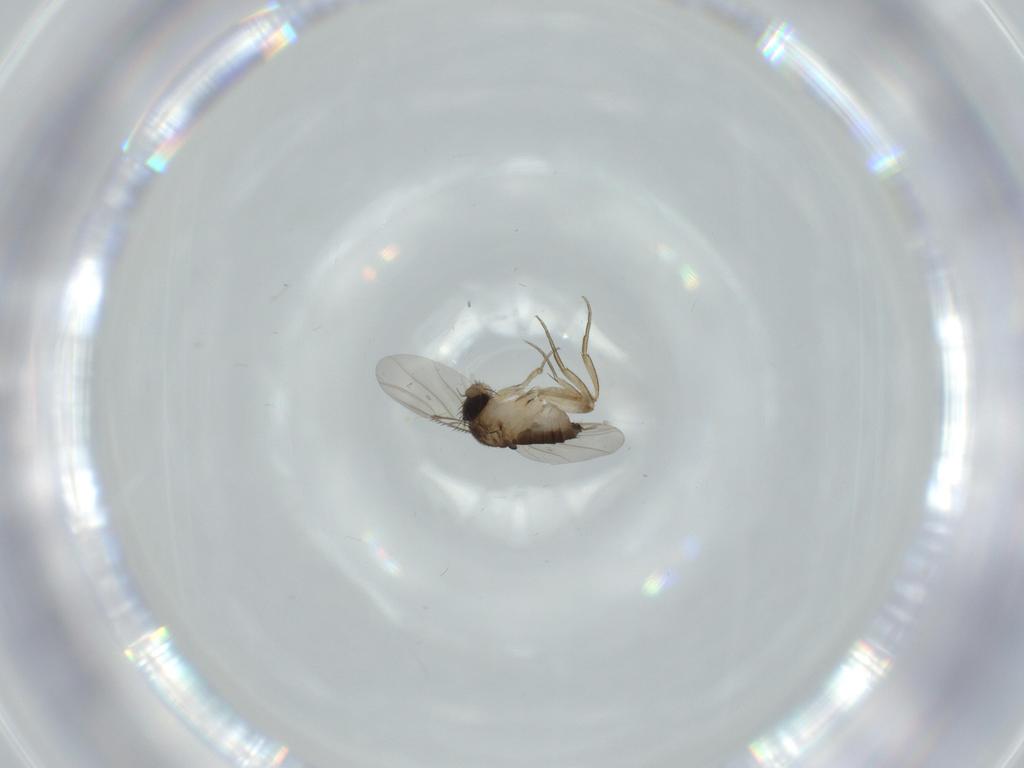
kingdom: Animalia
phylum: Arthropoda
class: Insecta
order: Diptera
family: Phoridae
